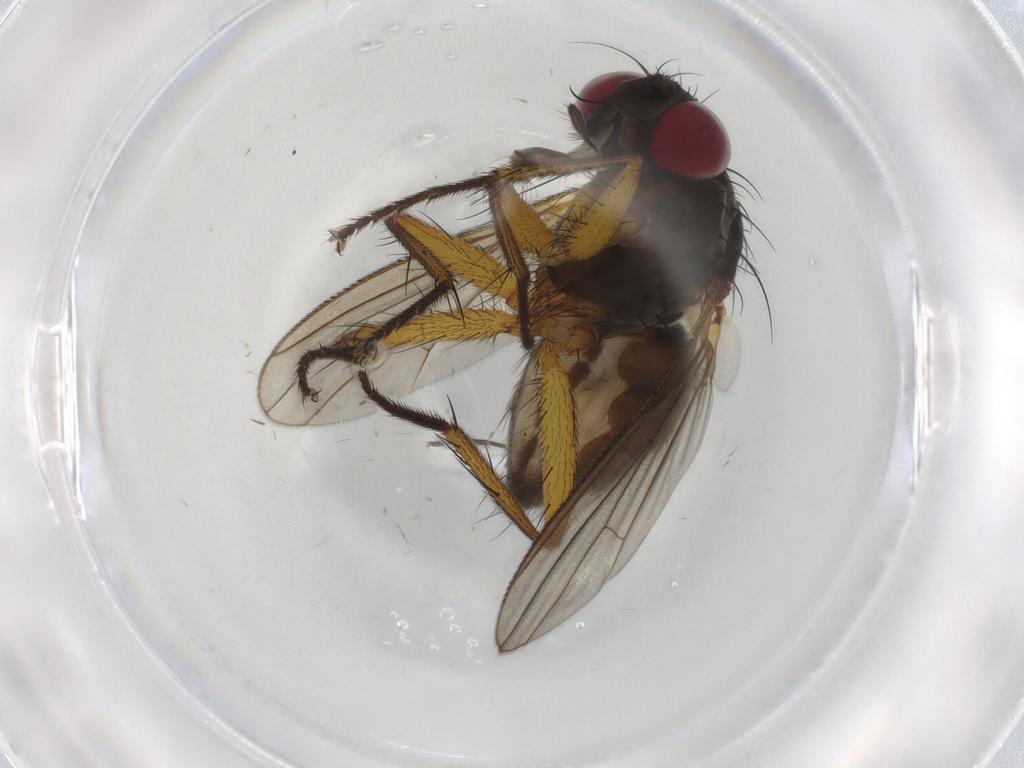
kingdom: Animalia
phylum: Arthropoda
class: Insecta
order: Diptera
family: Muscidae
